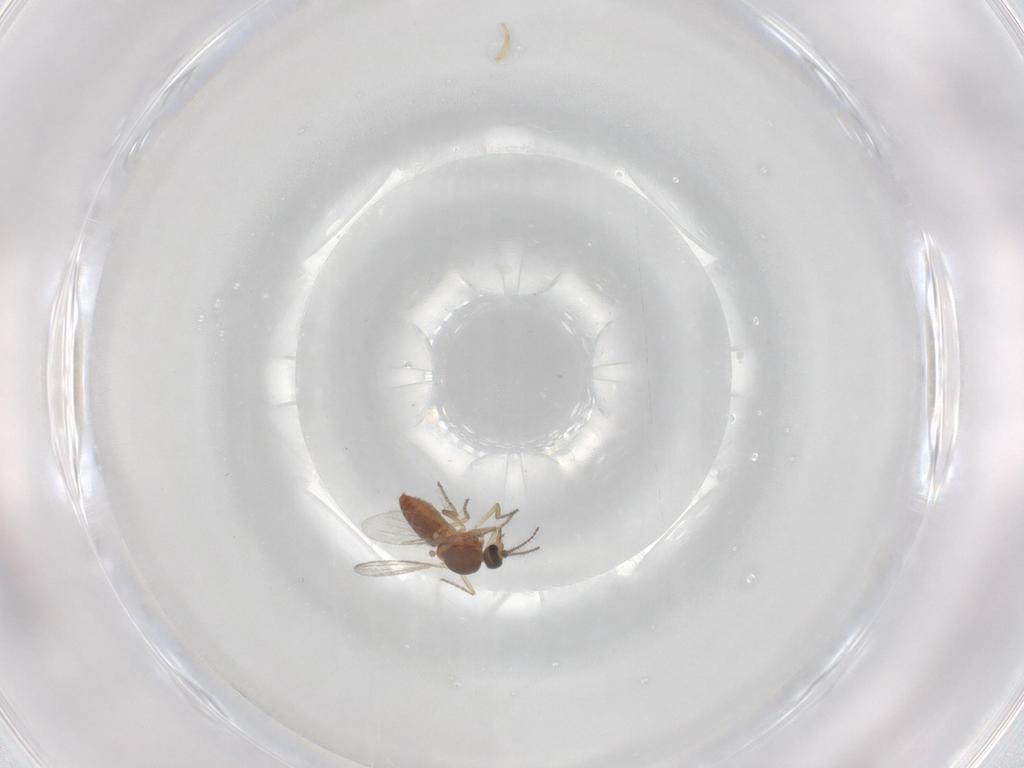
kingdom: Animalia
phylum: Arthropoda
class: Insecta
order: Diptera
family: Ceratopogonidae
